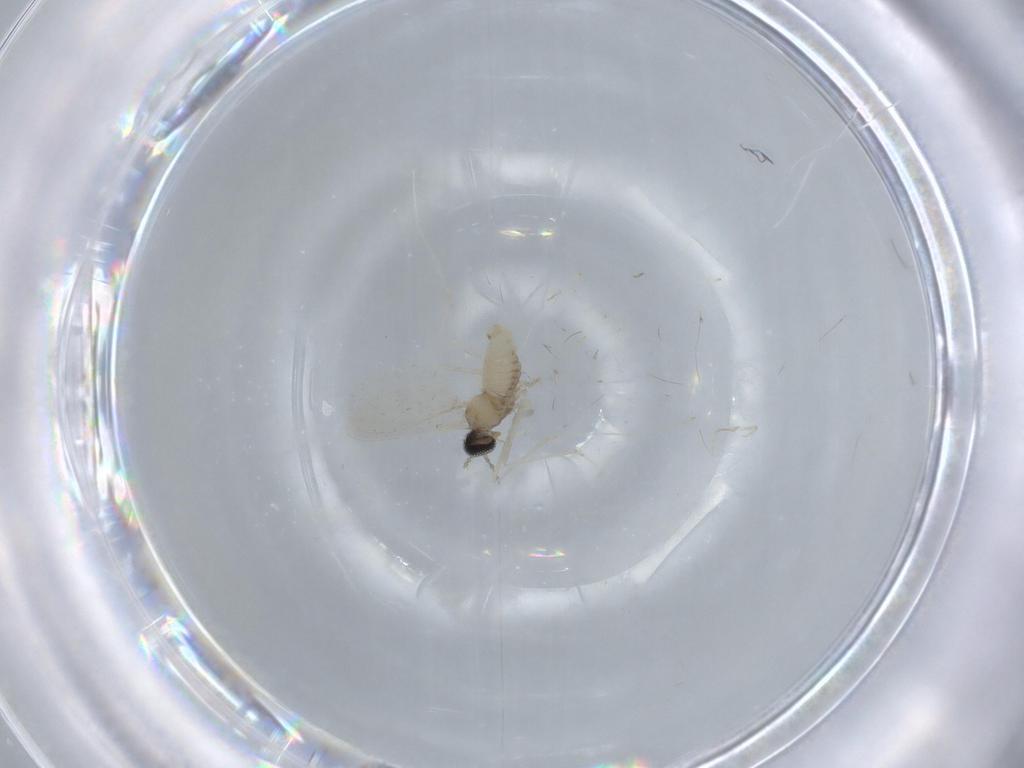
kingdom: Animalia
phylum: Arthropoda
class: Insecta
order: Diptera
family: Cecidomyiidae
